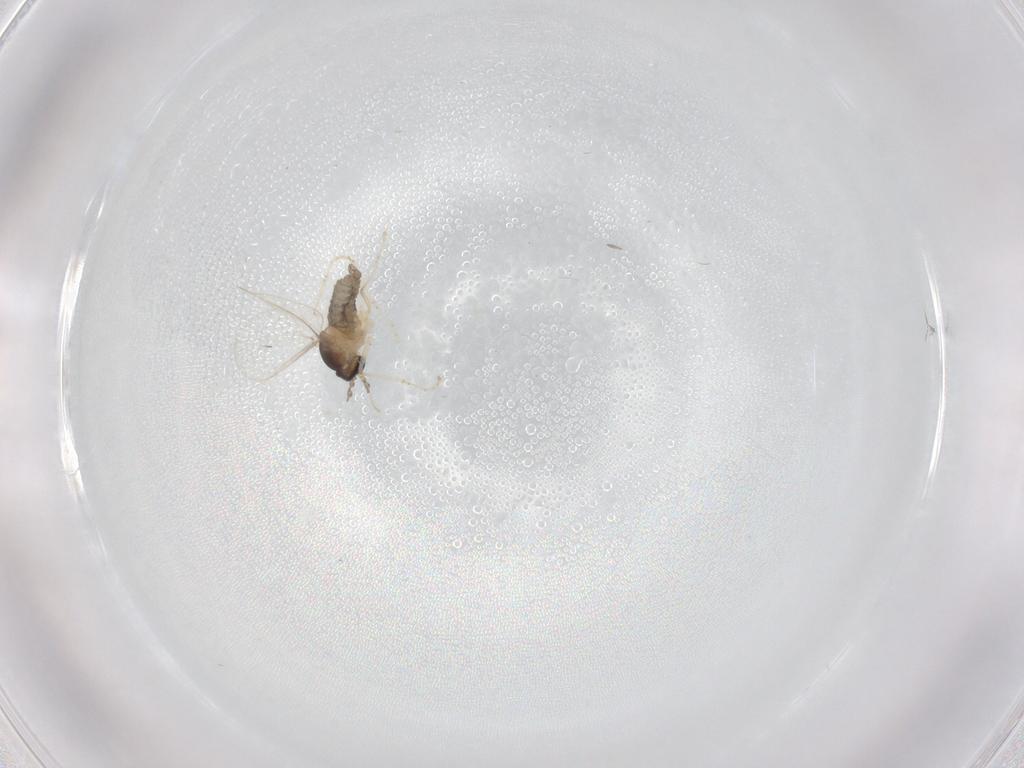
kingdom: Animalia
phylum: Arthropoda
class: Insecta
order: Diptera
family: Cecidomyiidae
